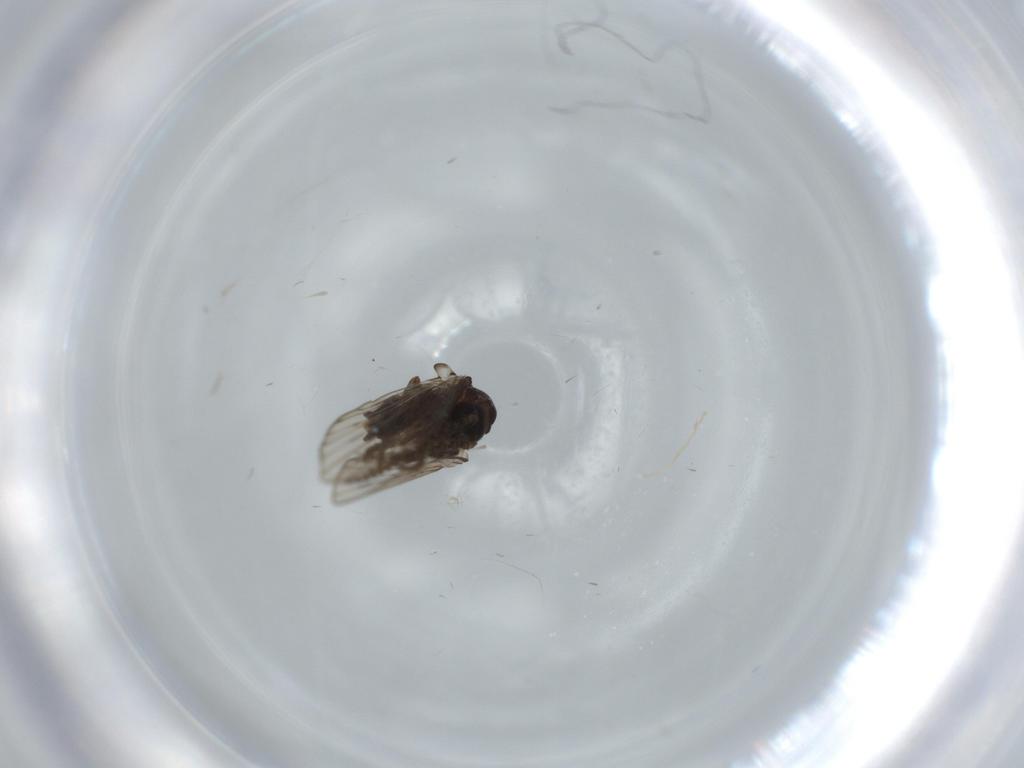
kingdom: Animalia
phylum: Arthropoda
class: Insecta
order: Diptera
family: Psychodidae
